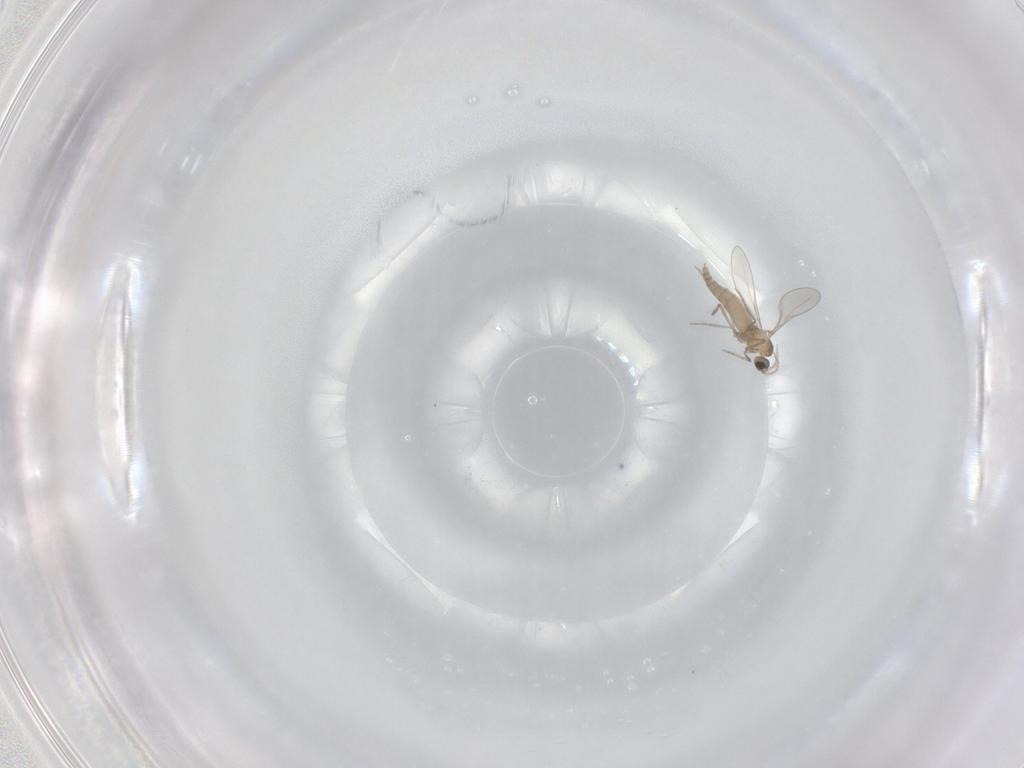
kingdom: Animalia
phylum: Arthropoda
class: Insecta
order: Diptera
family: Cecidomyiidae
